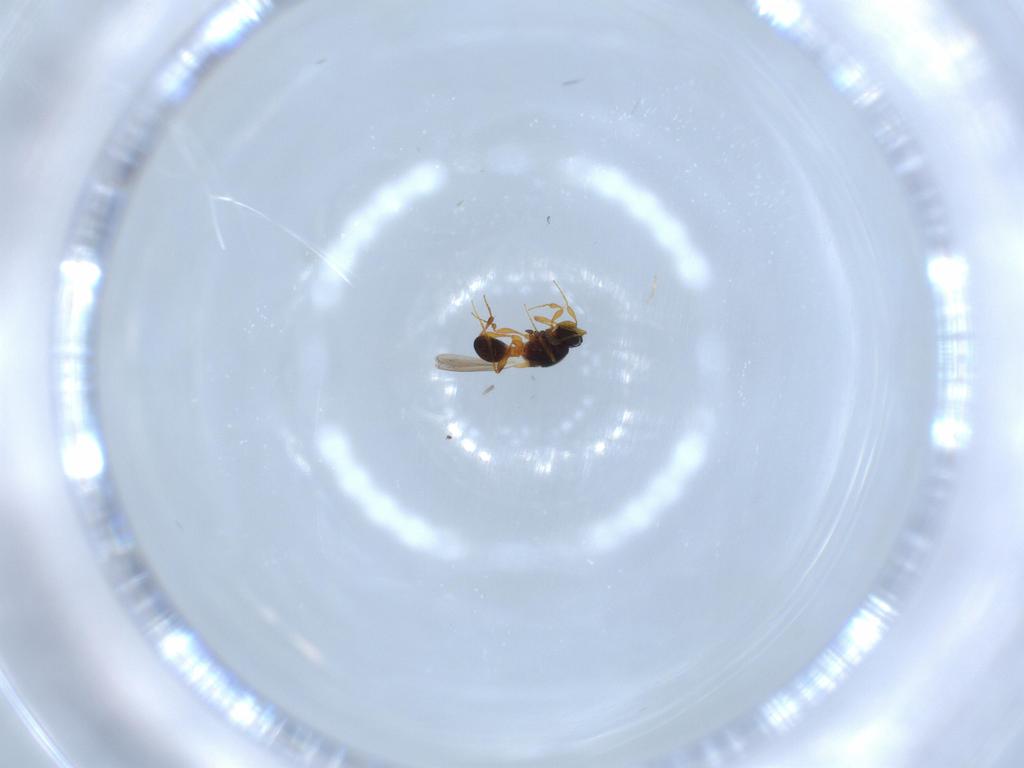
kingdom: Animalia
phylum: Arthropoda
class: Insecta
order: Hymenoptera
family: Platygastridae
